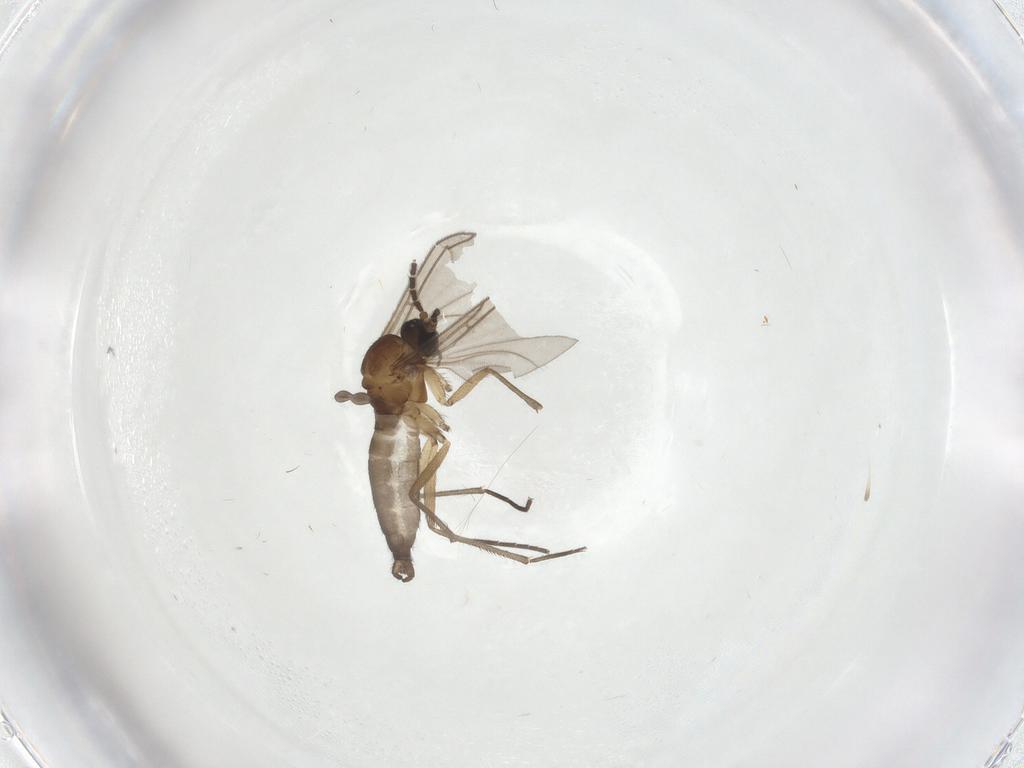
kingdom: Animalia
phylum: Arthropoda
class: Insecta
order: Diptera
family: Sciaridae
